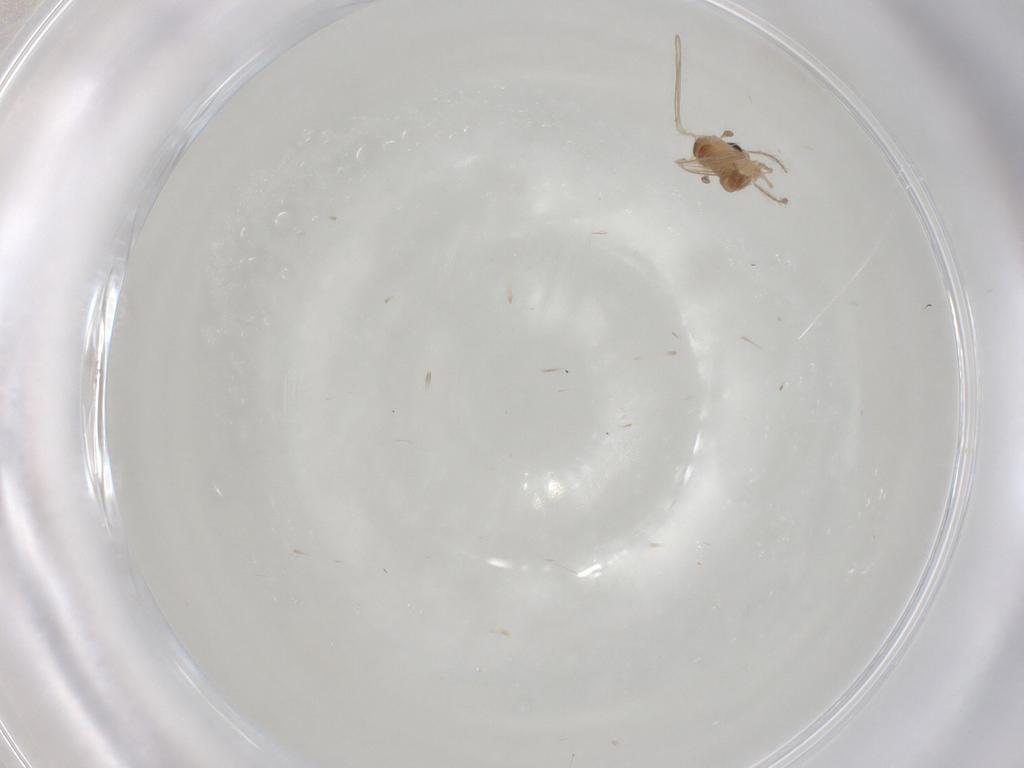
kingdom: Animalia
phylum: Arthropoda
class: Insecta
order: Diptera
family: Psychodidae
